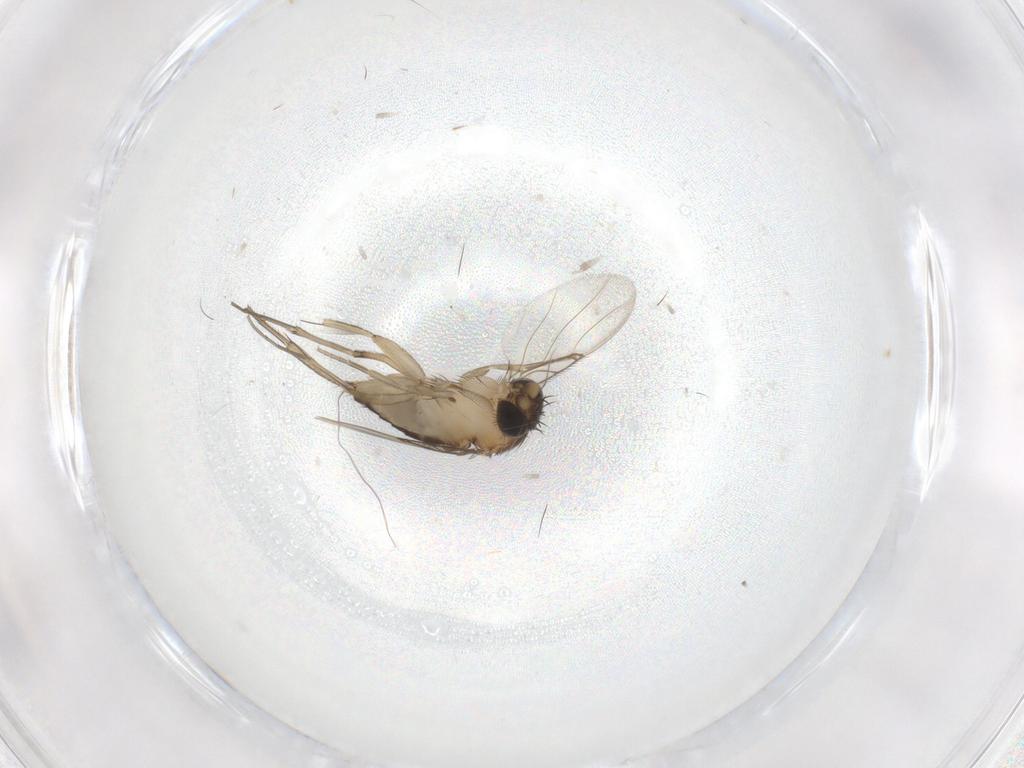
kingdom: Animalia
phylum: Arthropoda
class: Insecta
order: Diptera
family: Phoridae
